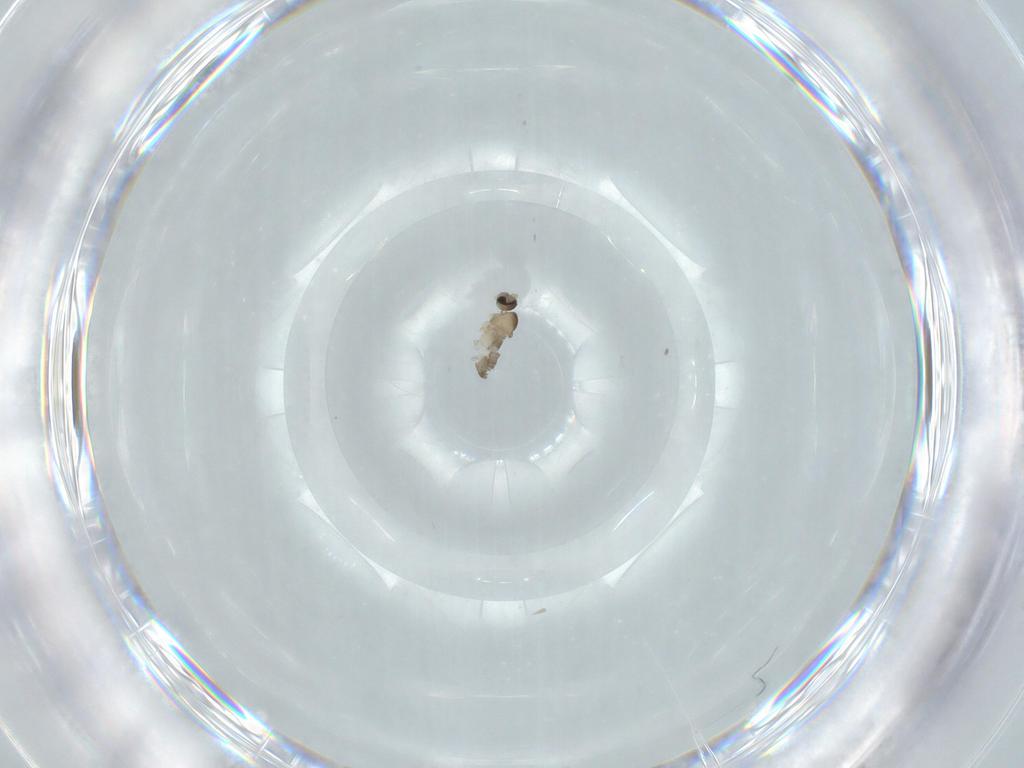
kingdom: Animalia
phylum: Arthropoda
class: Insecta
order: Diptera
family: Cecidomyiidae
